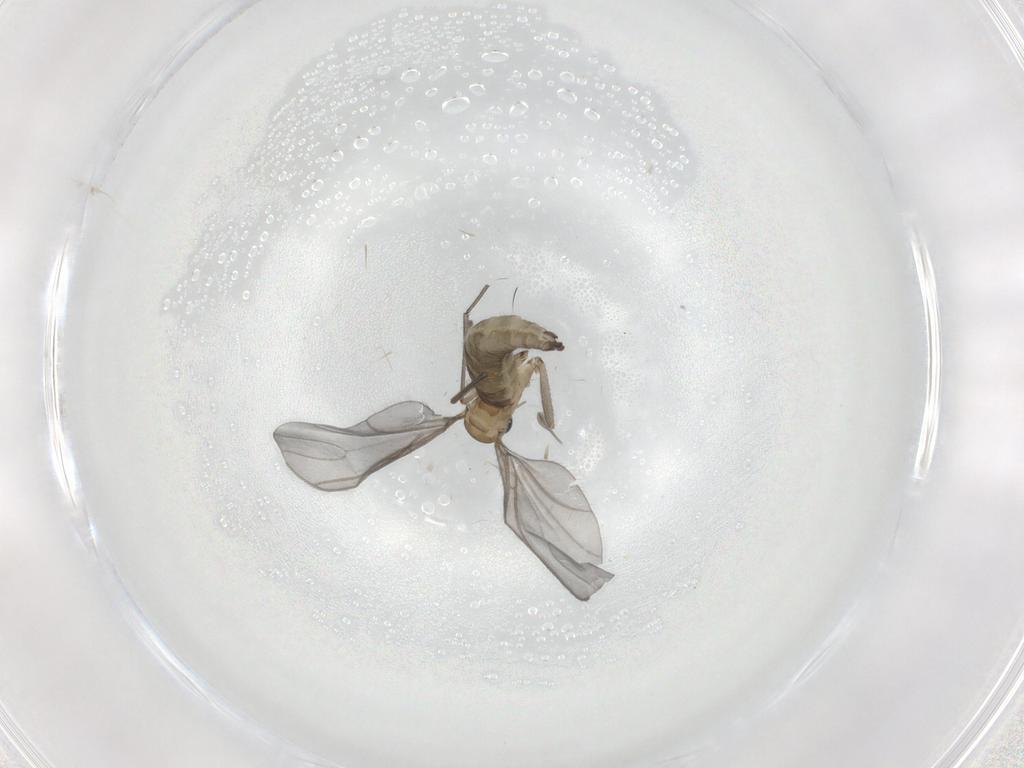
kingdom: Animalia
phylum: Arthropoda
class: Insecta
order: Diptera
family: Sciaridae
